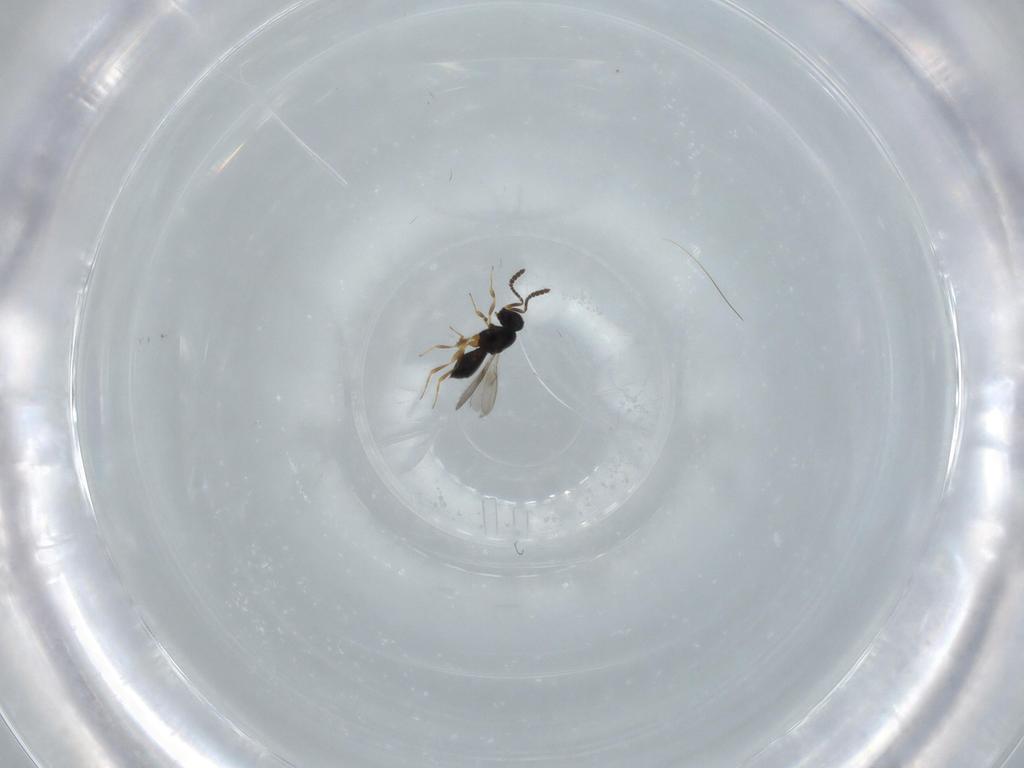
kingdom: Animalia
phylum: Arthropoda
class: Insecta
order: Hymenoptera
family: Scelionidae
